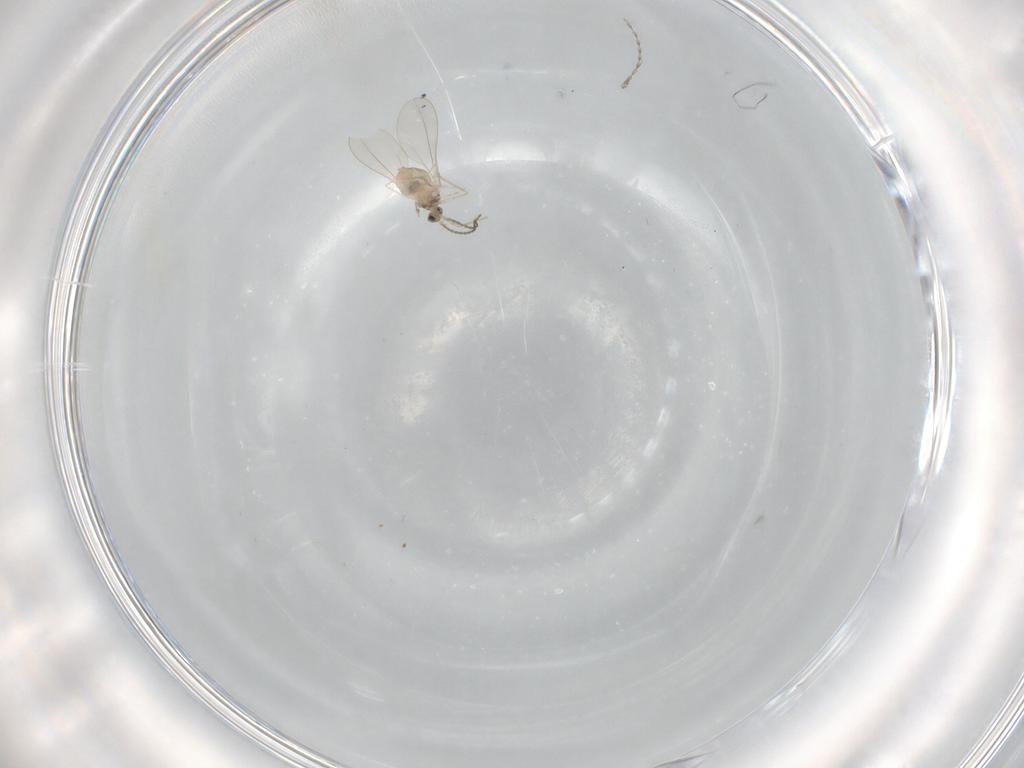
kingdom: Animalia
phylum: Arthropoda
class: Insecta
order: Diptera
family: Cecidomyiidae
